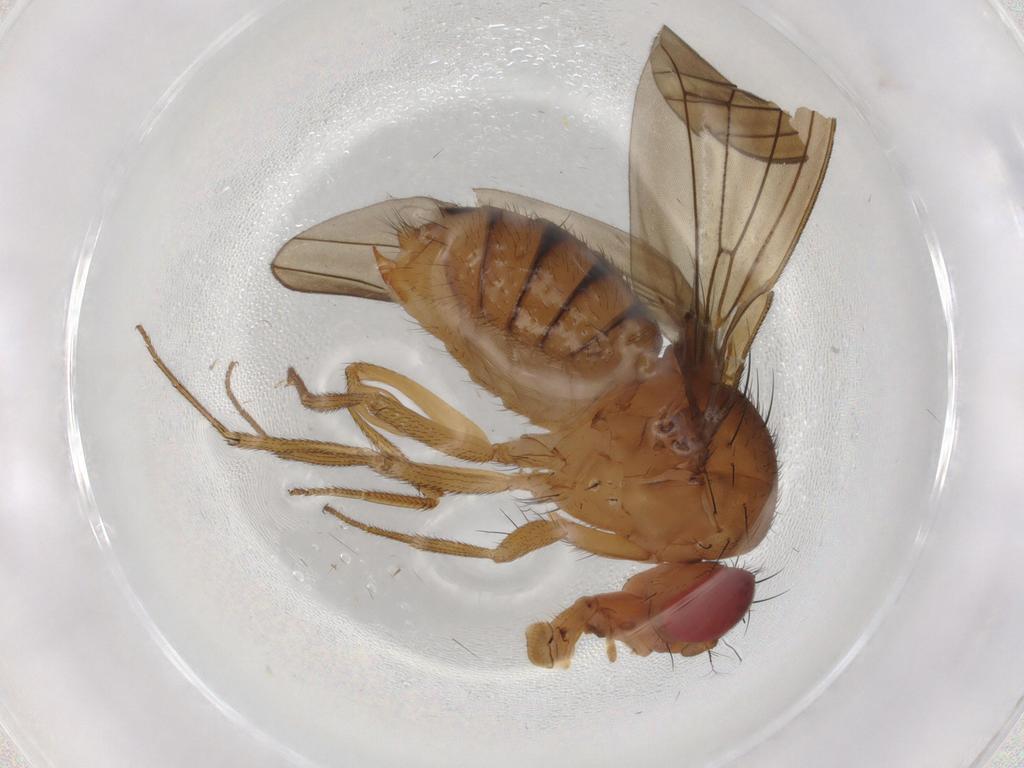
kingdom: Animalia
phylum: Arthropoda
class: Insecta
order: Diptera
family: Drosophilidae
